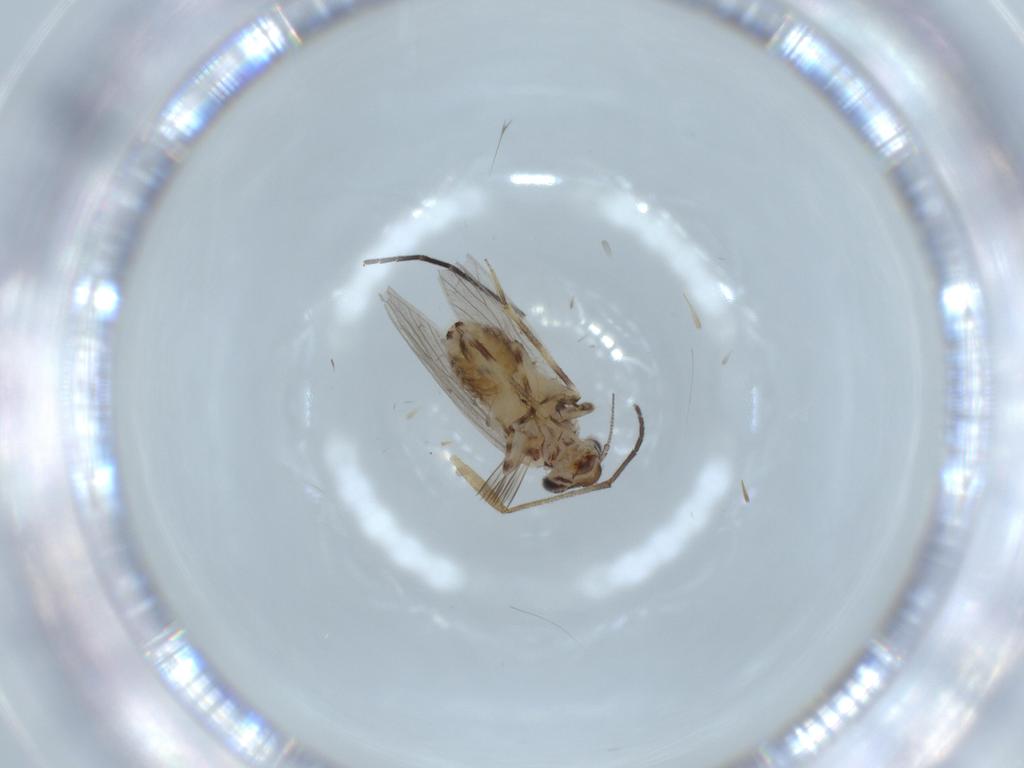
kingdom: Animalia
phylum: Arthropoda
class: Insecta
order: Psocodea
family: Lepidopsocidae
